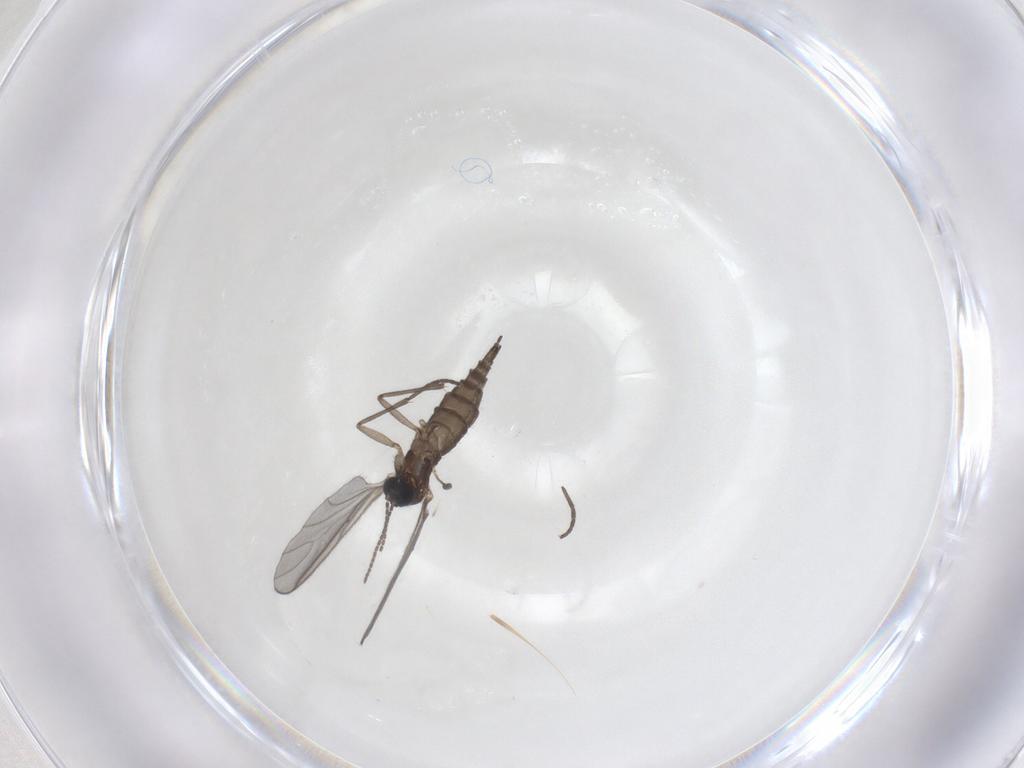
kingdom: Animalia
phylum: Arthropoda
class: Insecta
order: Diptera
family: Sciaridae
